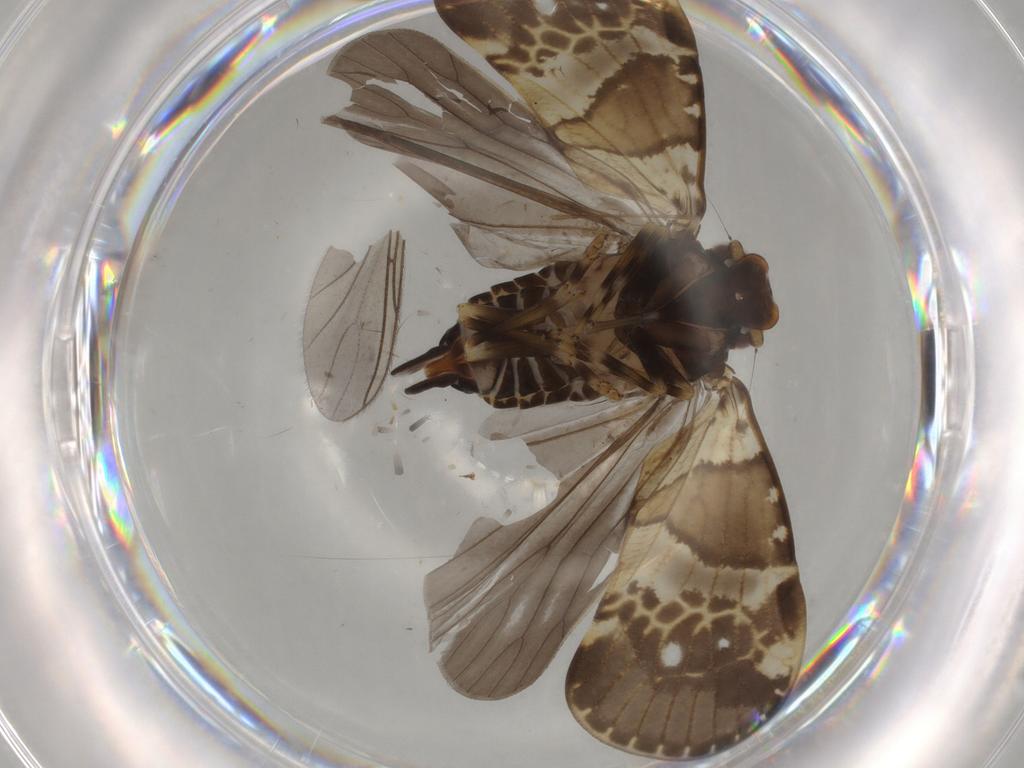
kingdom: Animalia
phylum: Arthropoda
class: Insecta
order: Hemiptera
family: Cixiidae
